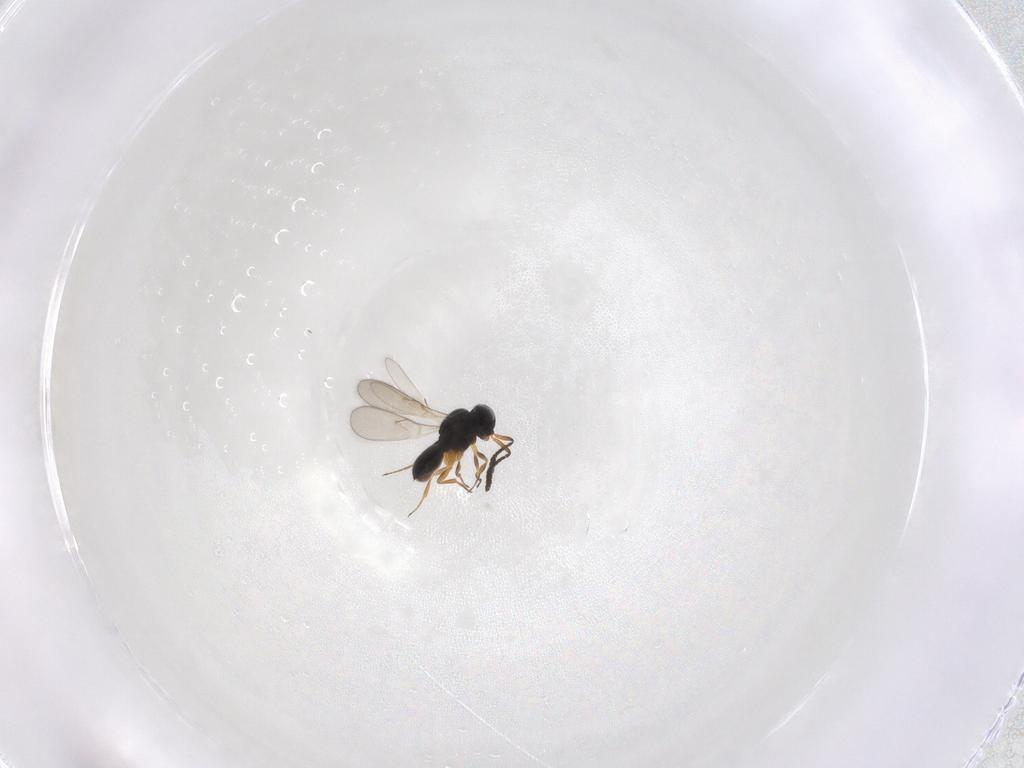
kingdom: Animalia
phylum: Arthropoda
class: Insecta
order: Hymenoptera
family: Scelionidae
